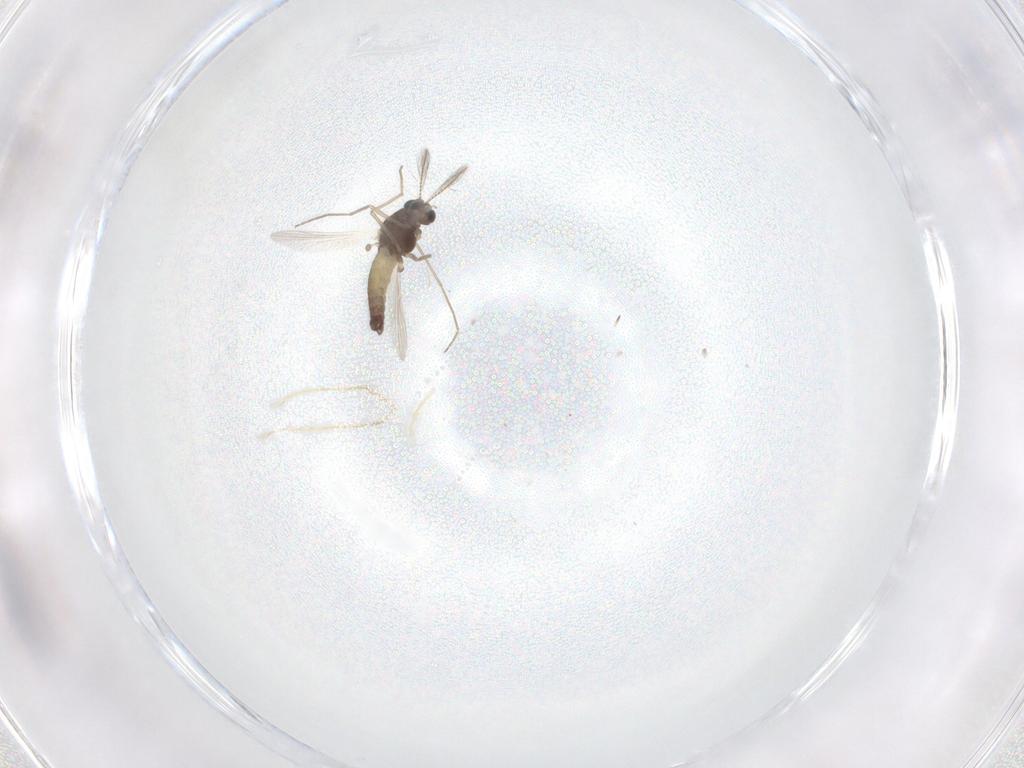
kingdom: Animalia
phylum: Arthropoda
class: Insecta
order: Diptera
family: Chironomidae
